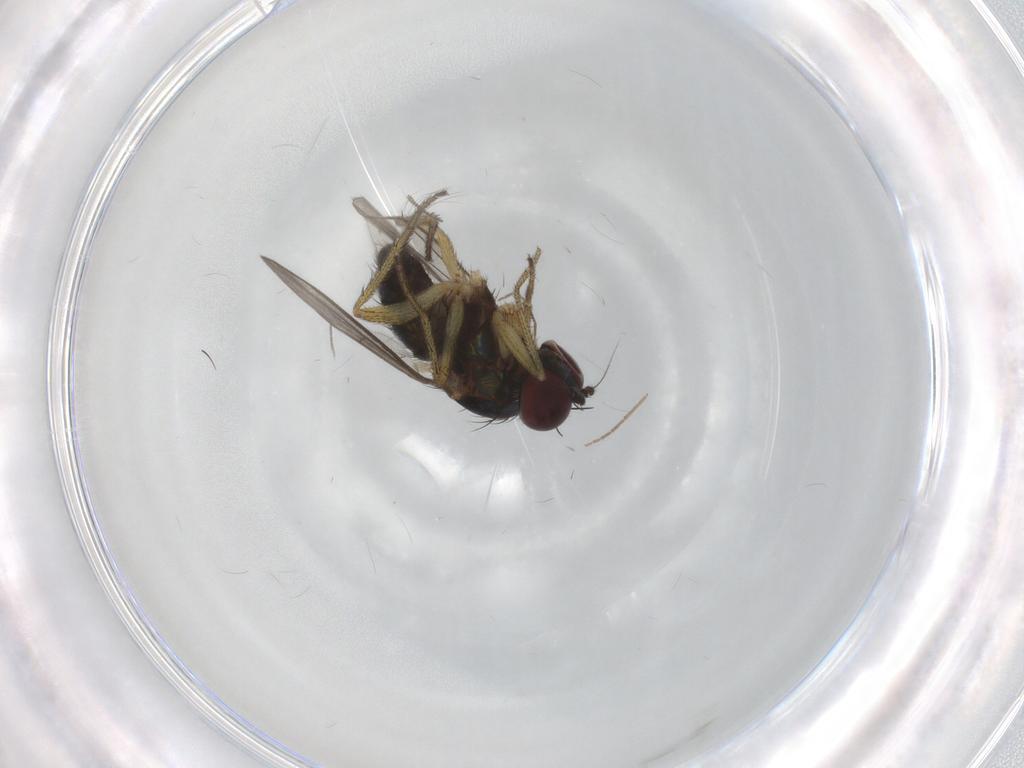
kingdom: Animalia
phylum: Arthropoda
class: Insecta
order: Diptera
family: Chironomidae
